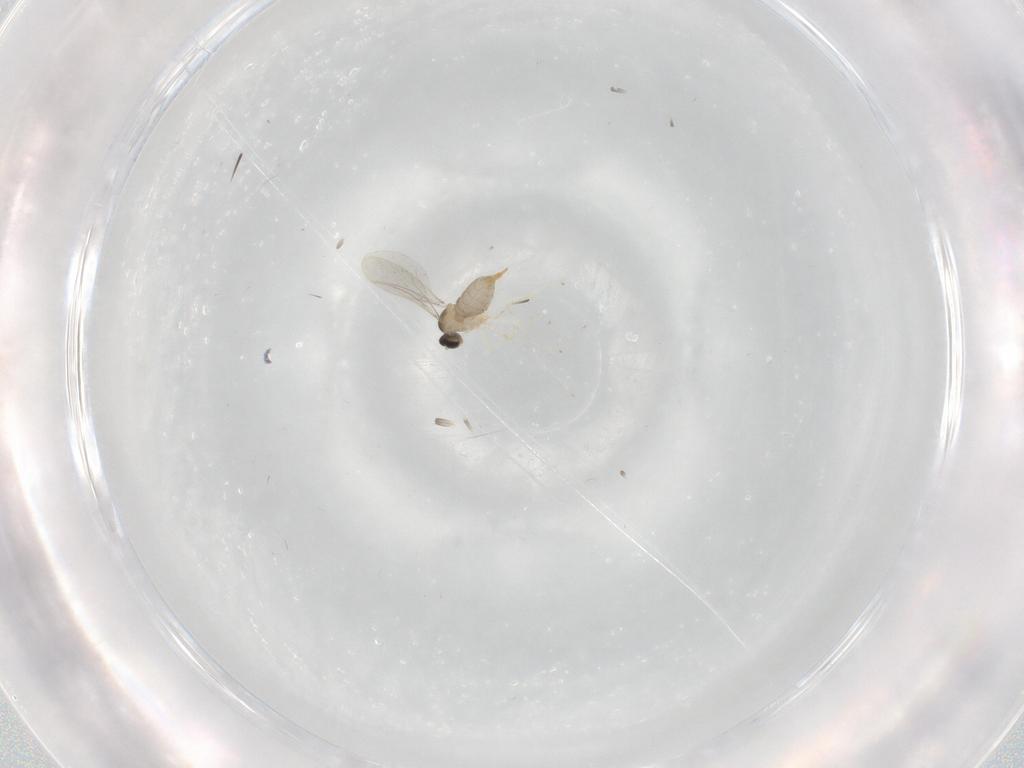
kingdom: Animalia
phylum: Arthropoda
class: Insecta
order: Diptera
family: Cecidomyiidae
